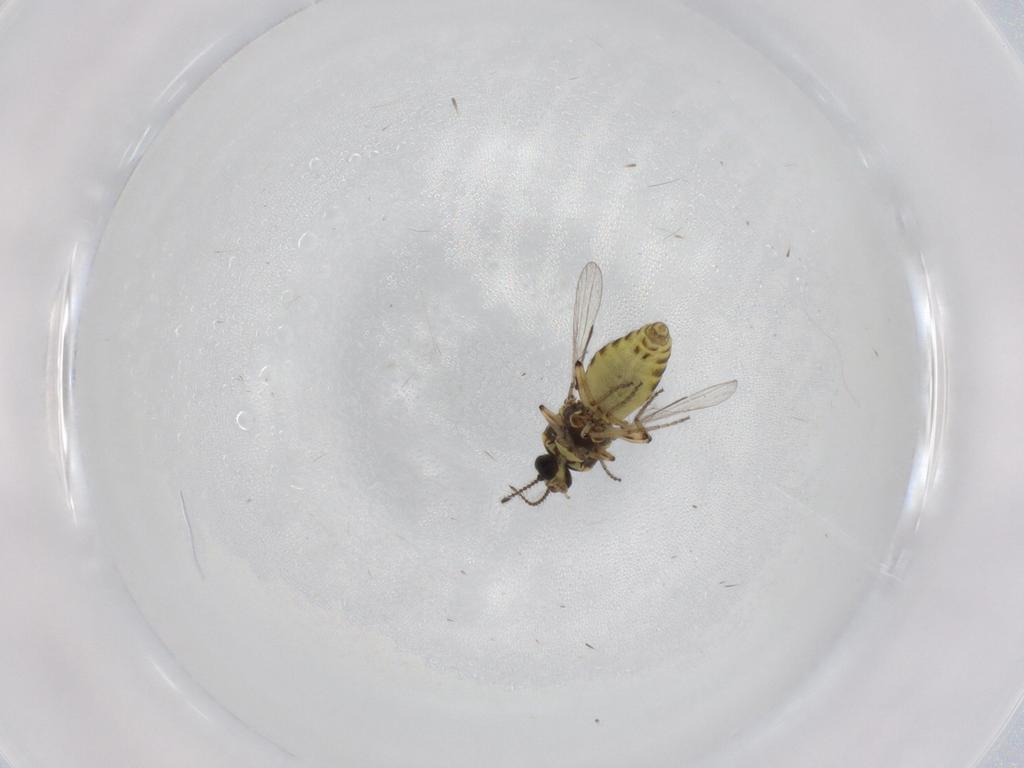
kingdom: Animalia
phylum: Arthropoda
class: Insecta
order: Diptera
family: Ceratopogonidae
